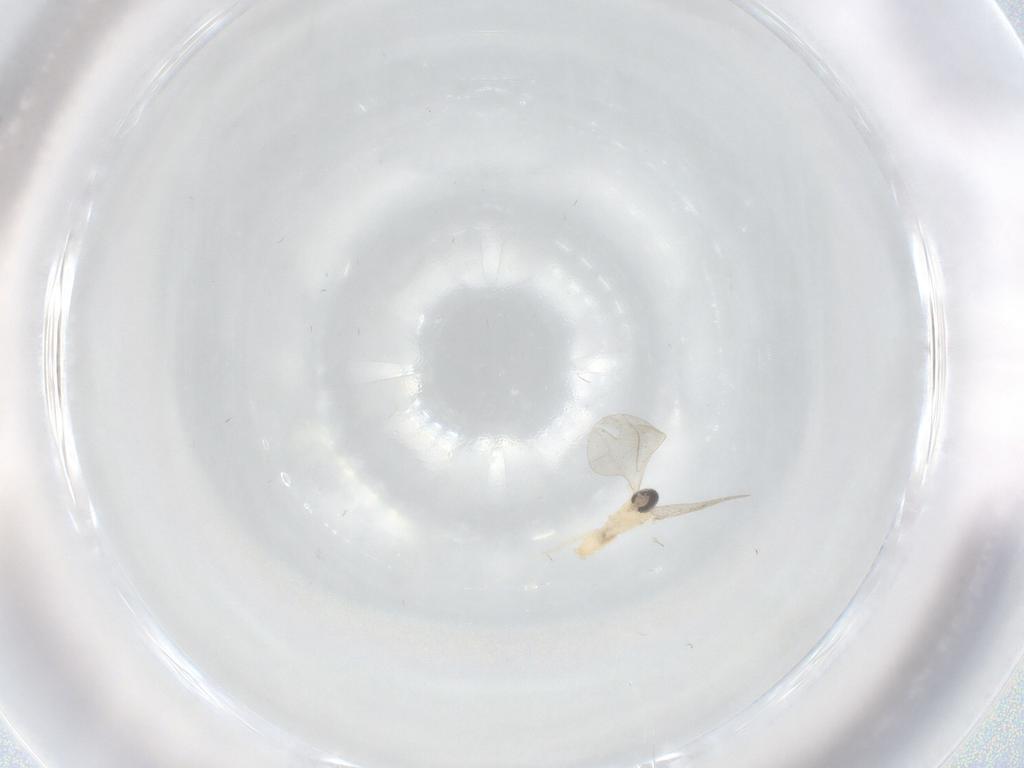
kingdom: Animalia
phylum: Arthropoda
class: Insecta
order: Diptera
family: Cecidomyiidae
